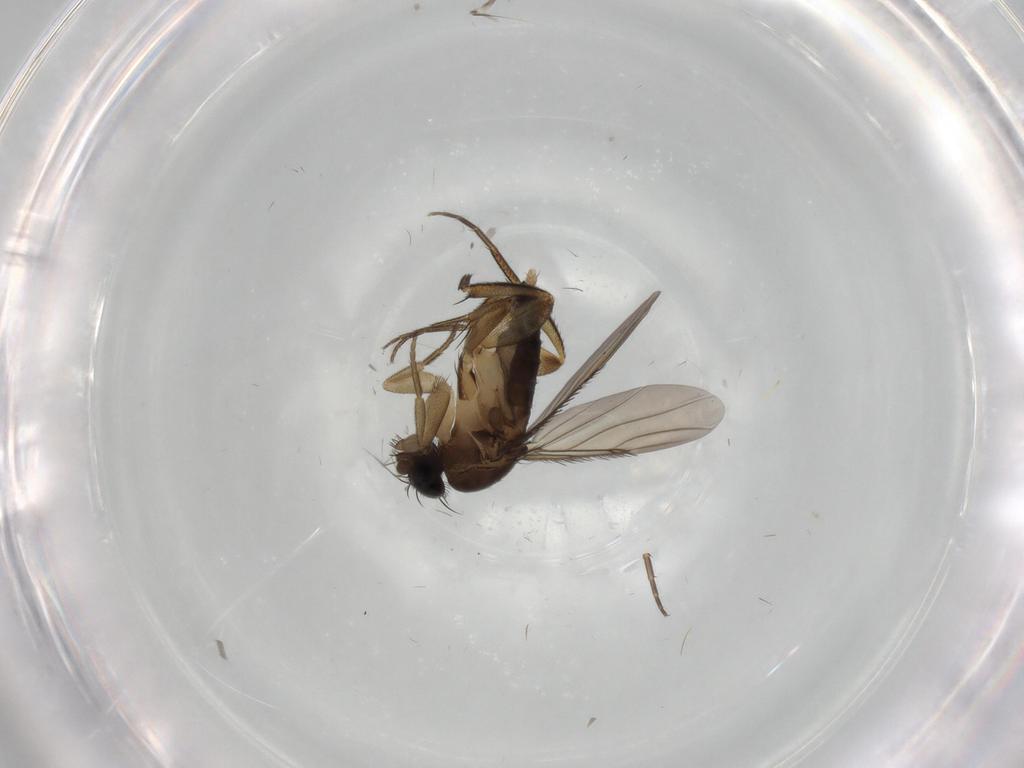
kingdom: Animalia
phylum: Arthropoda
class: Insecta
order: Diptera
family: Phoridae
